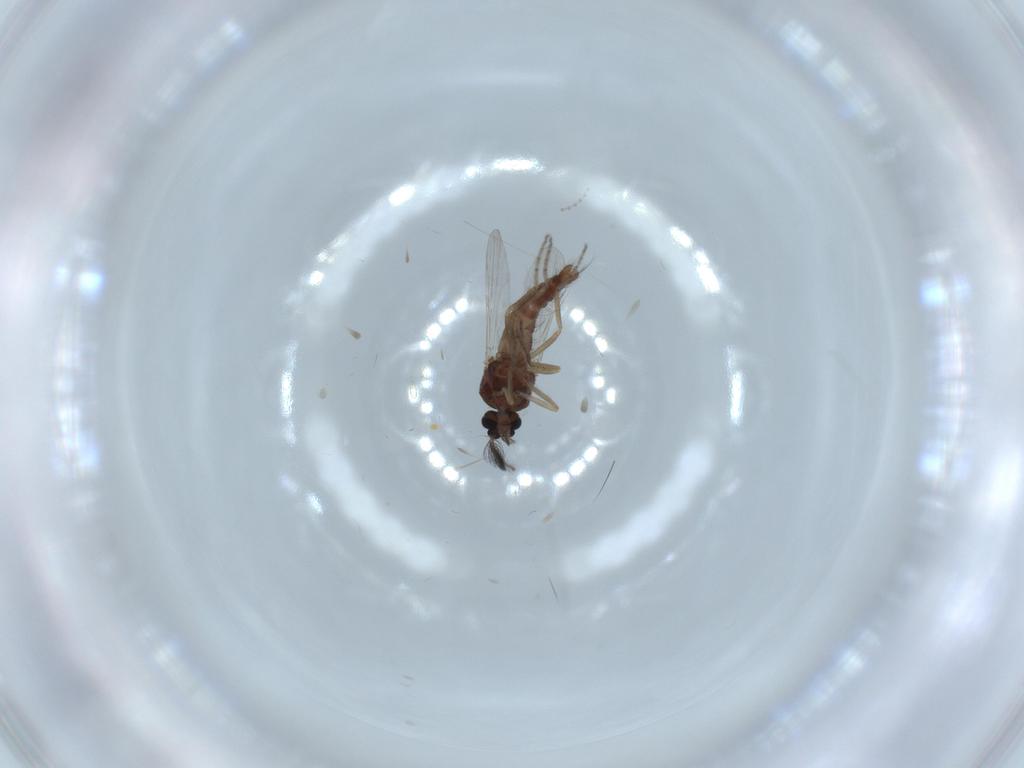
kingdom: Animalia
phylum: Arthropoda
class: Insecta
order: Diptera
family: Ceratopogonidae
